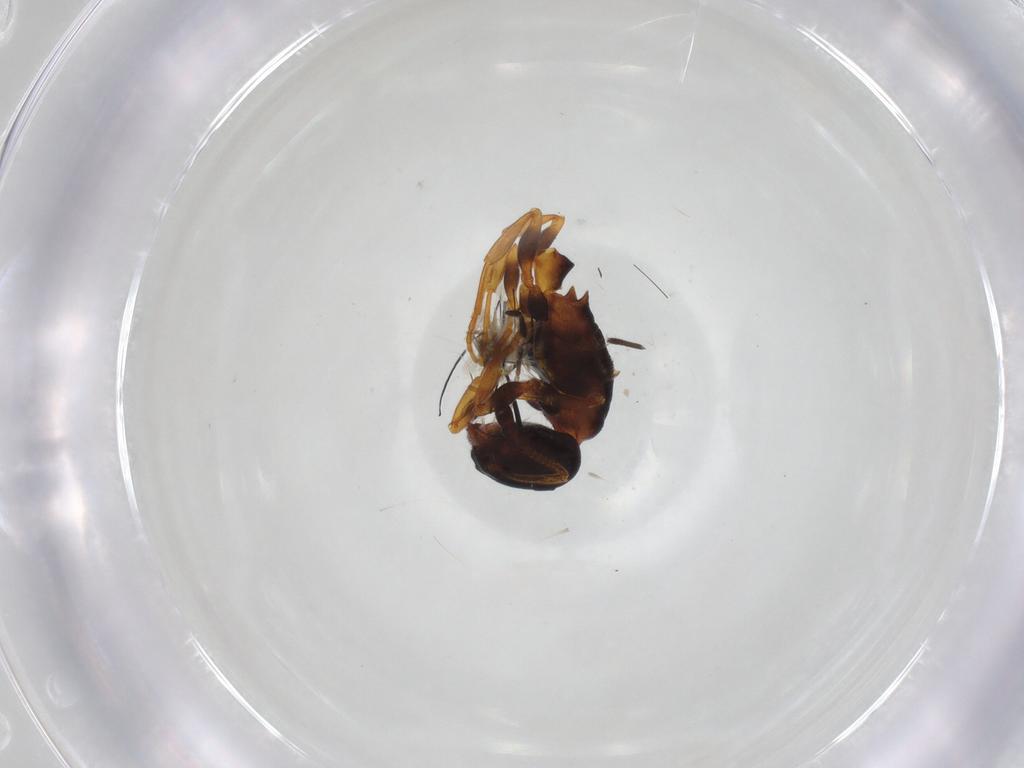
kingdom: Animalia
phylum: Arthropoda
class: Insecta
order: Hymenoptera
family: Formicidae
